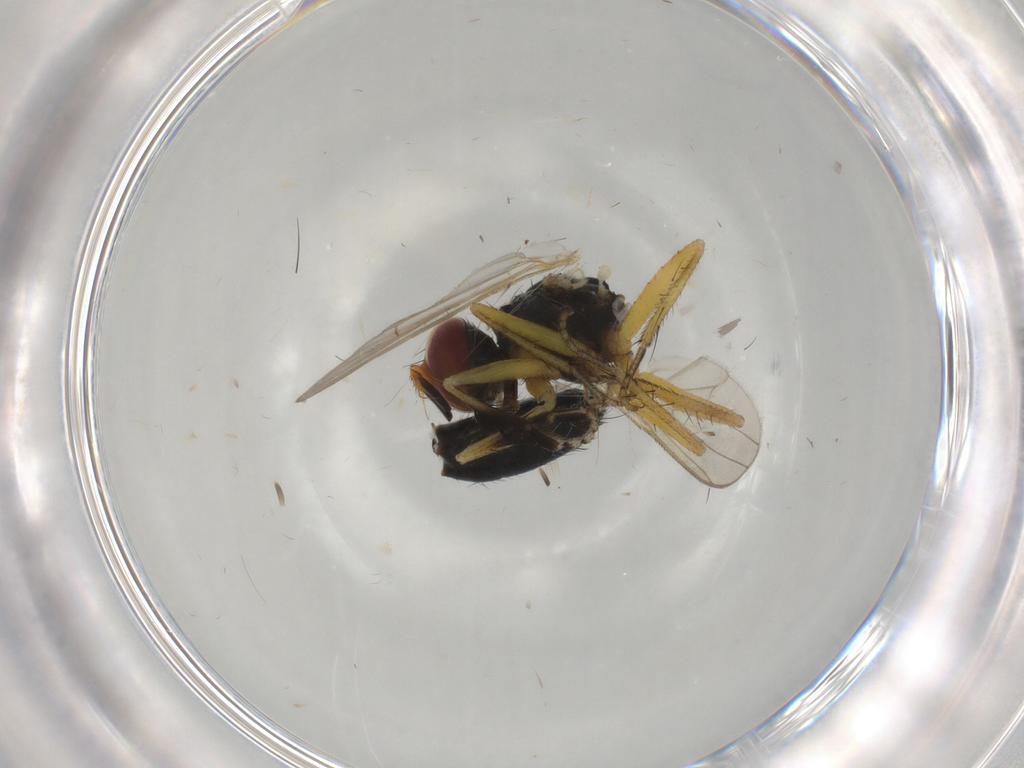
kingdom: Animalia
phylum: Arthropoda
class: Insecta
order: Diptera
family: Muscidae
